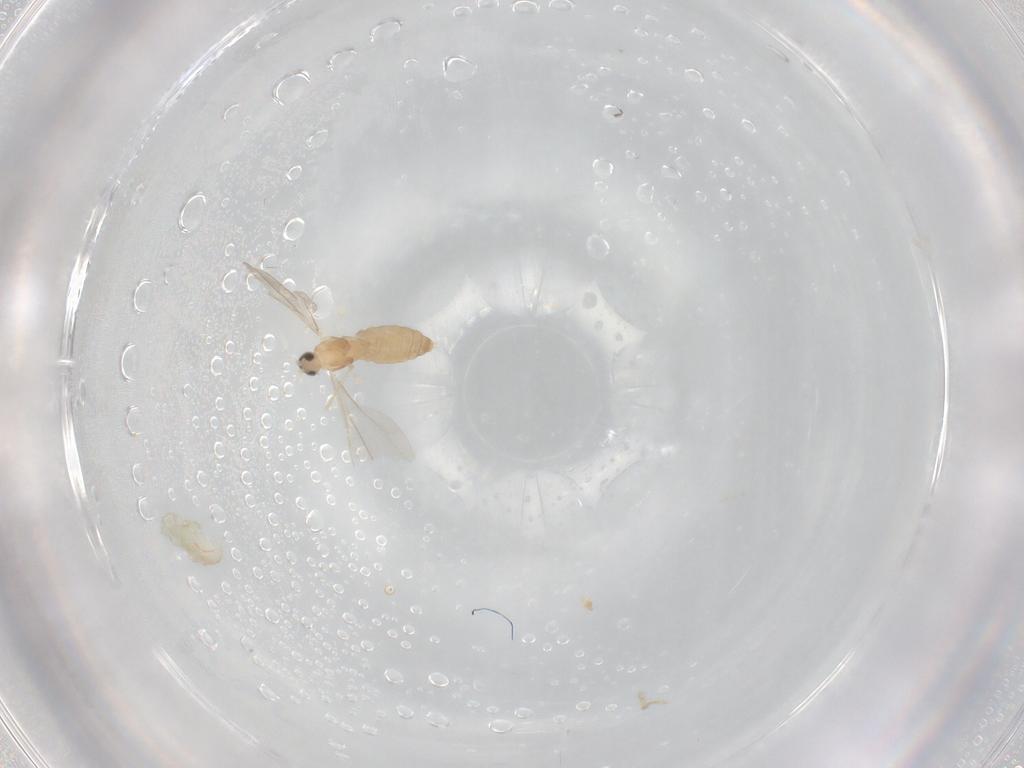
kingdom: Animalia
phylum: Arthropoda
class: Insecta
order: Diptera
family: Cecidomyiidae
